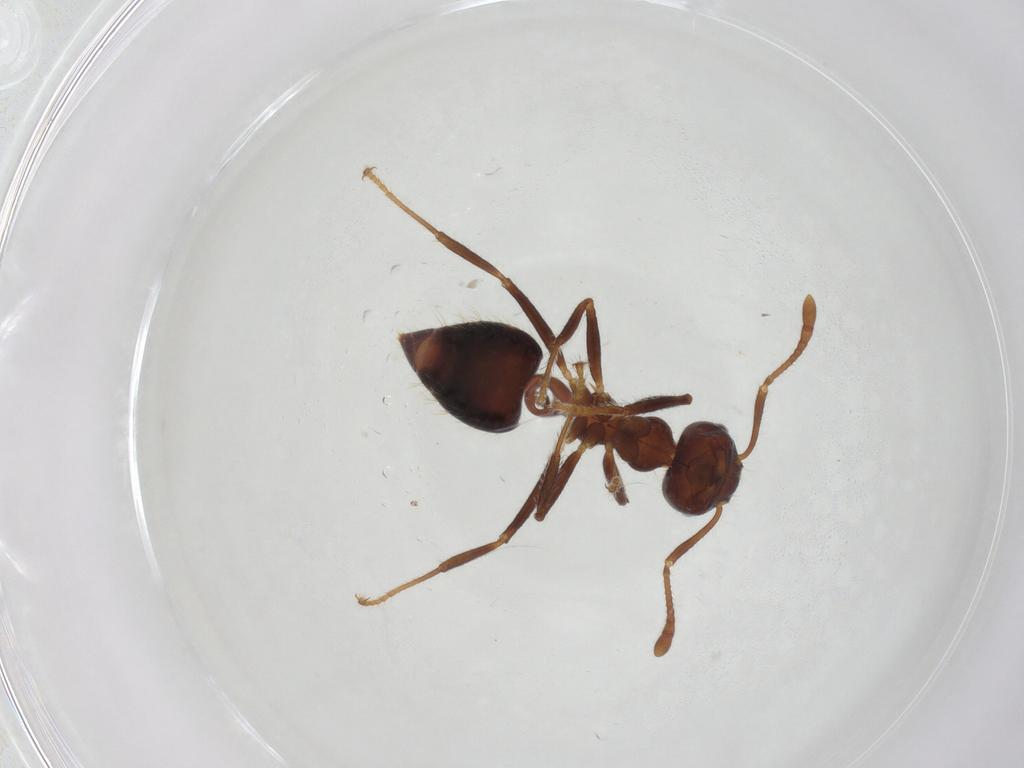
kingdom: Animalia
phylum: Arthropoda
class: Insecta
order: Hymenoptera
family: Formicidae
